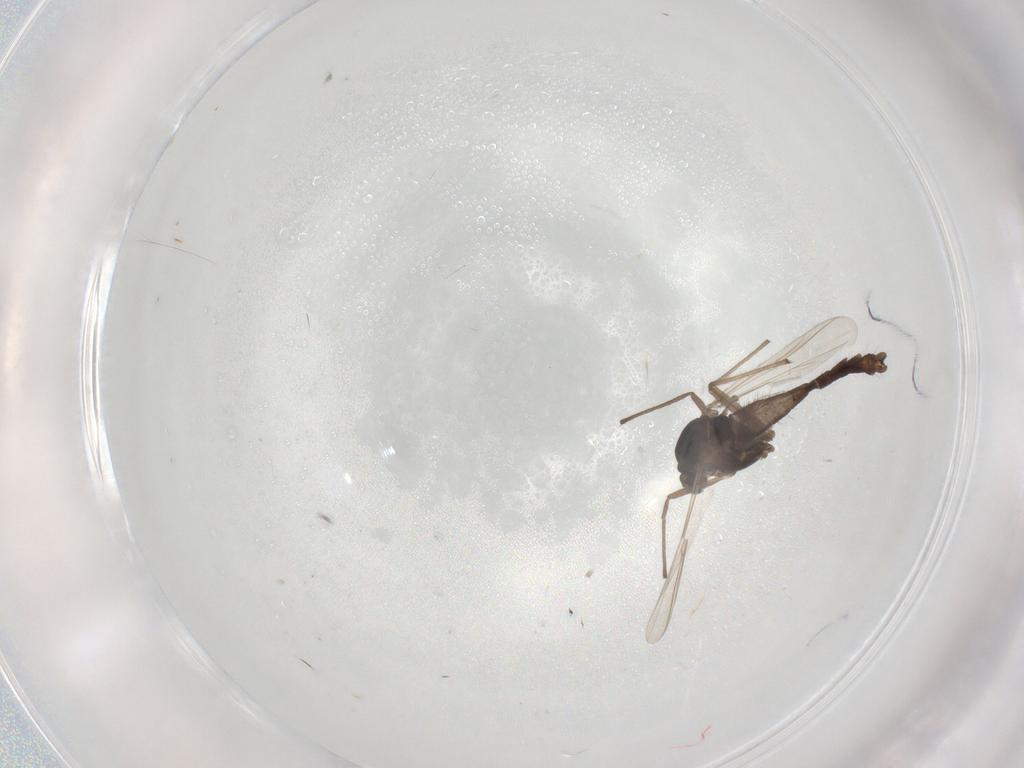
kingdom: Animalia
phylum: Arthropoda
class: Insecta
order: Diptera
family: Chironomidae
